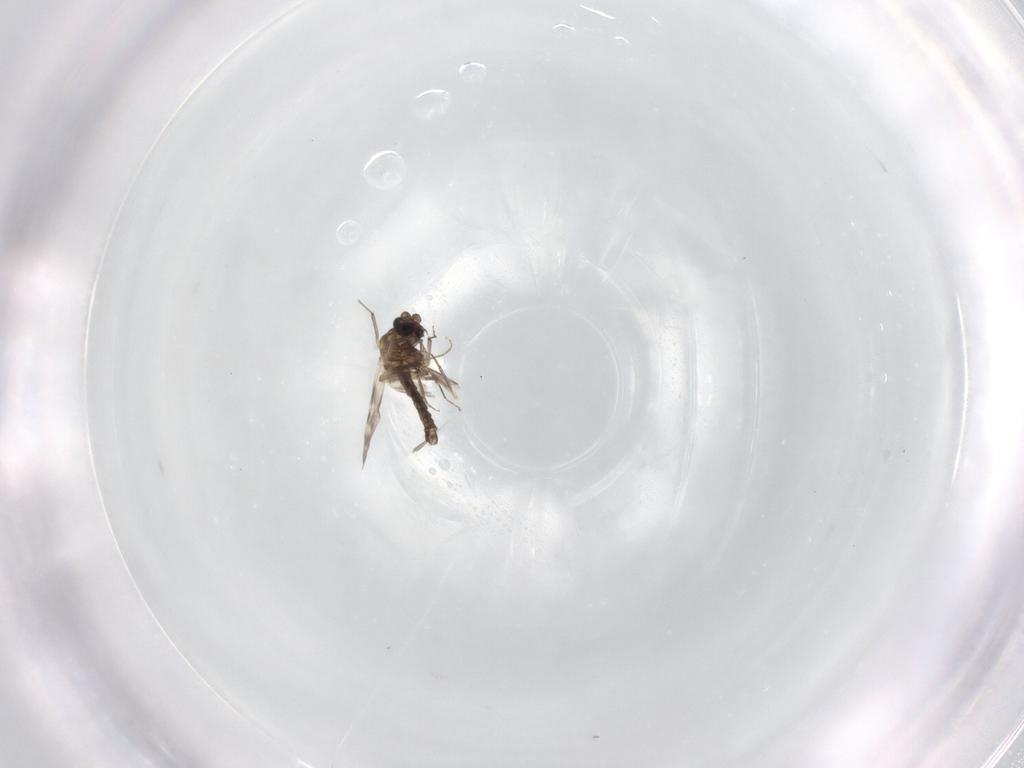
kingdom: Animalia
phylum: Arthropoda
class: Insecta
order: Diptera
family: Ceratopogonidae
